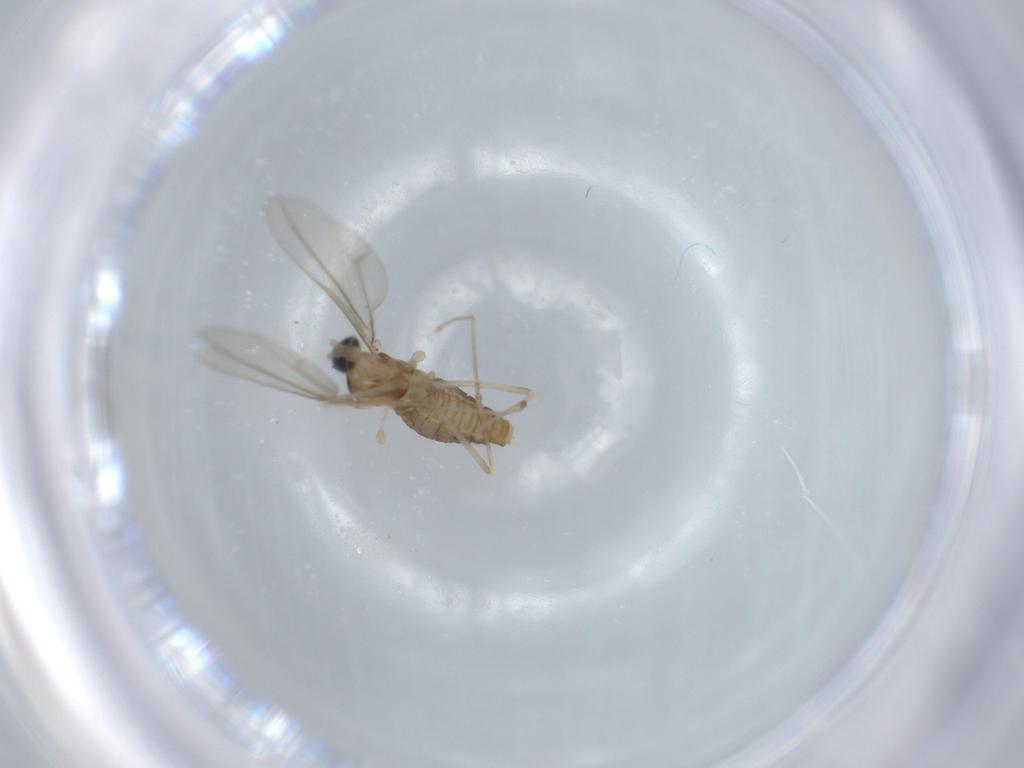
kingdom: Animalia
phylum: Arthropoda
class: Insecta
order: Diptera
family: Cecidomyiidae
